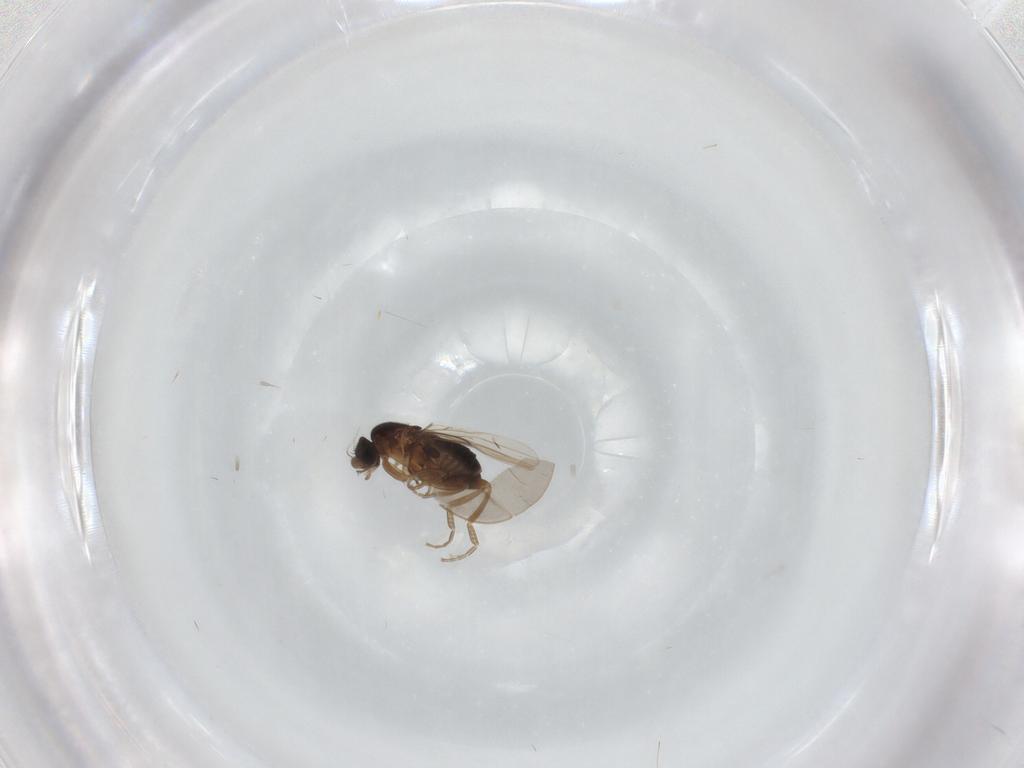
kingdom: Animalia
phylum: Arthropoda
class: Insecta
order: Diptera
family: Phoridae
